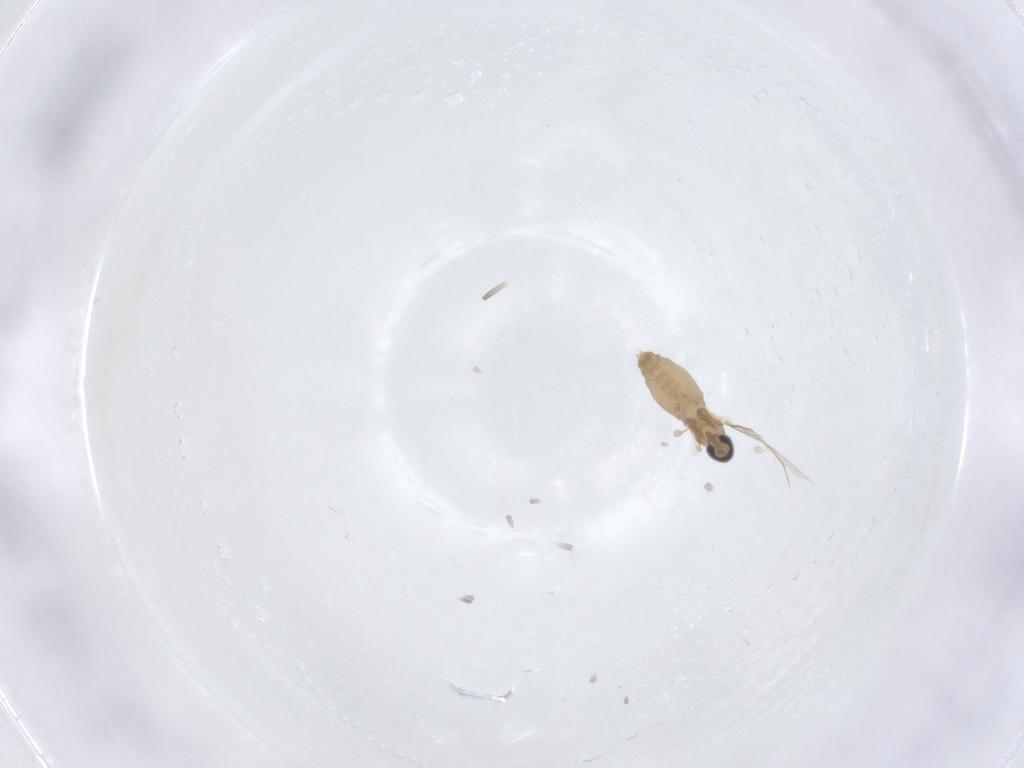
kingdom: Animalia
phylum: Arthropoda
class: Insecta
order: Diptera
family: Cecidomyiidae
